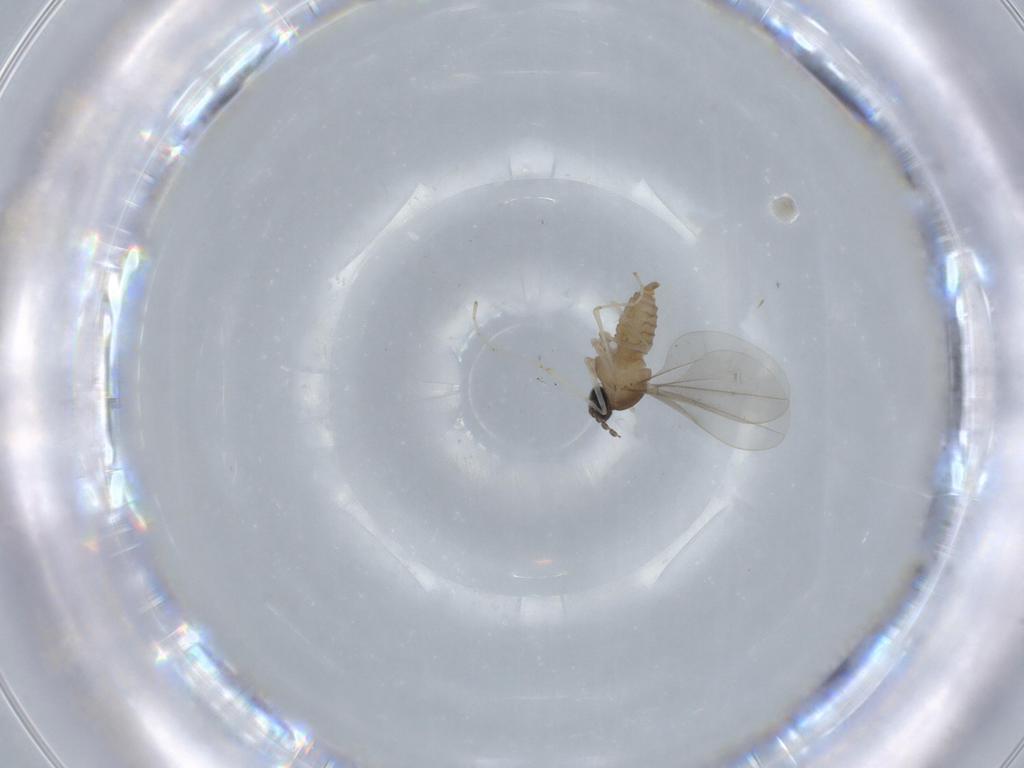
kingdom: Animalia
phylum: Arthropoda
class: Insecta
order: Diptera
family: Cecidomyiidae
